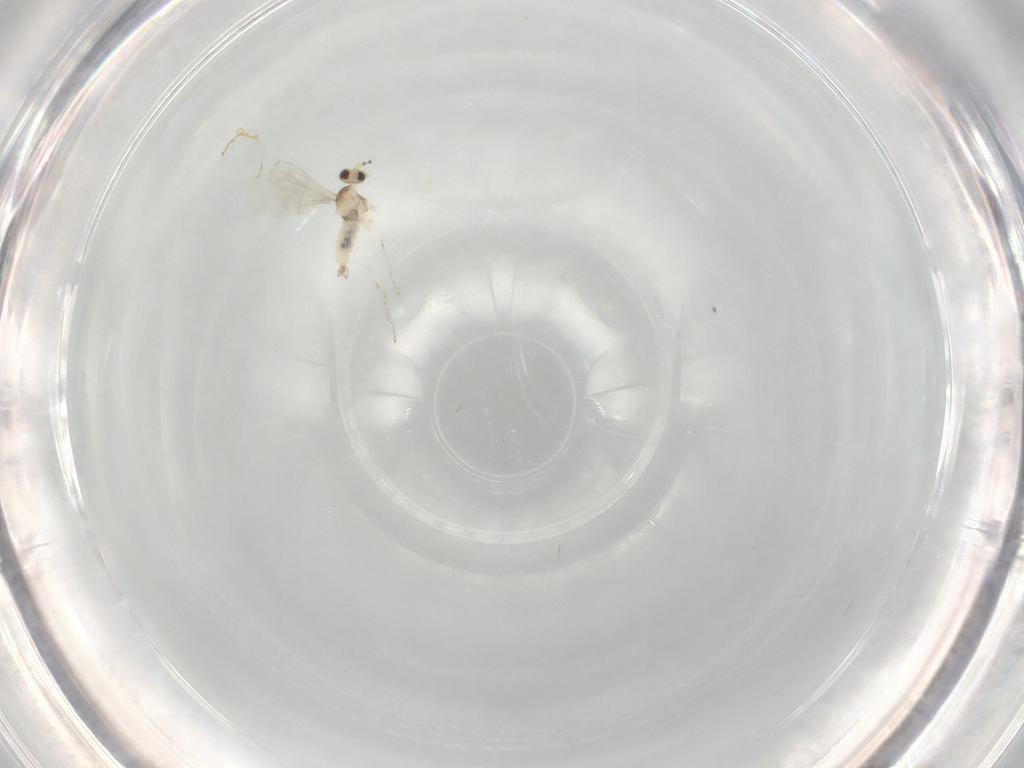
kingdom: Animalia
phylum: Arthropoda
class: Insecta
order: Diptera
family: Cecidomyiidae
